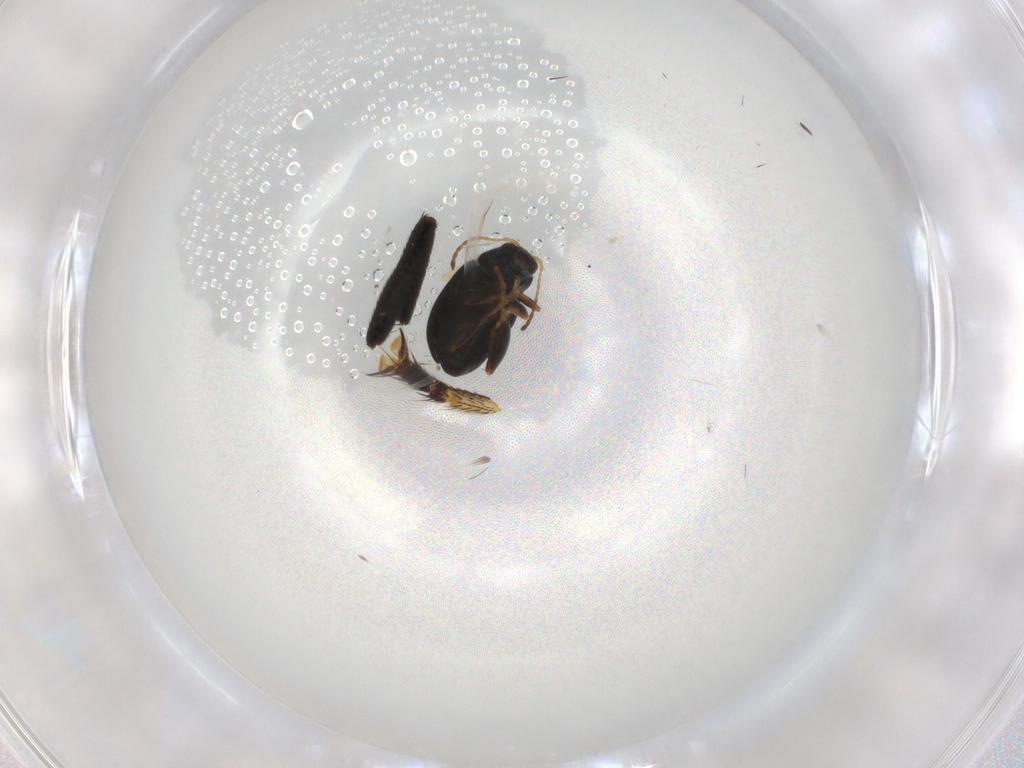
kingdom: Animalia
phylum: Arthropoda
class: Insecta
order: Coleoptera
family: Chrysomelidae
